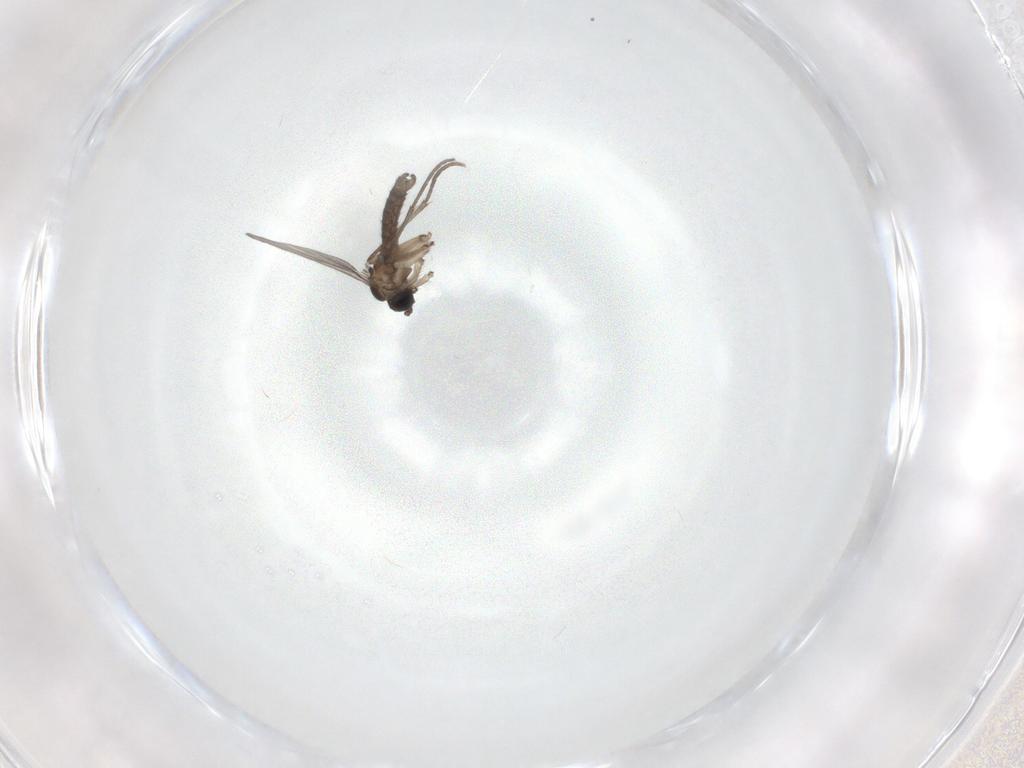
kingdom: Animalia
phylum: Arthropoda
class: Insecta
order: Diptera
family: Sciaridae
